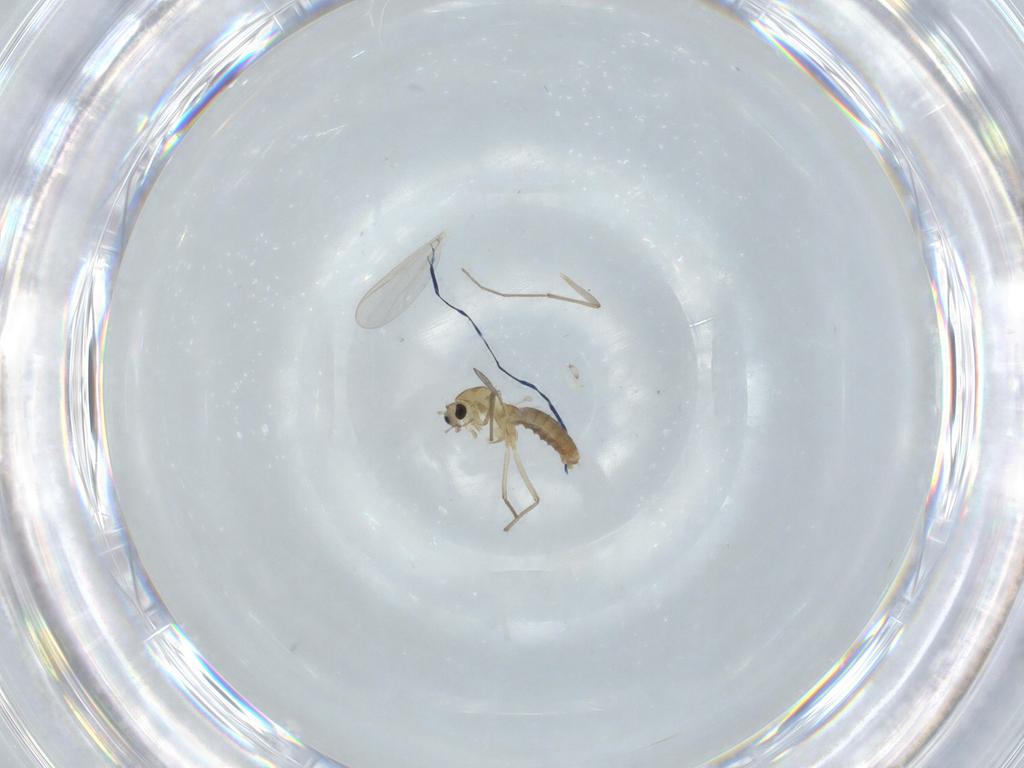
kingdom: Animalia
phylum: Arthropoda
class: Insecta
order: Diptera
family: Chironomidae
